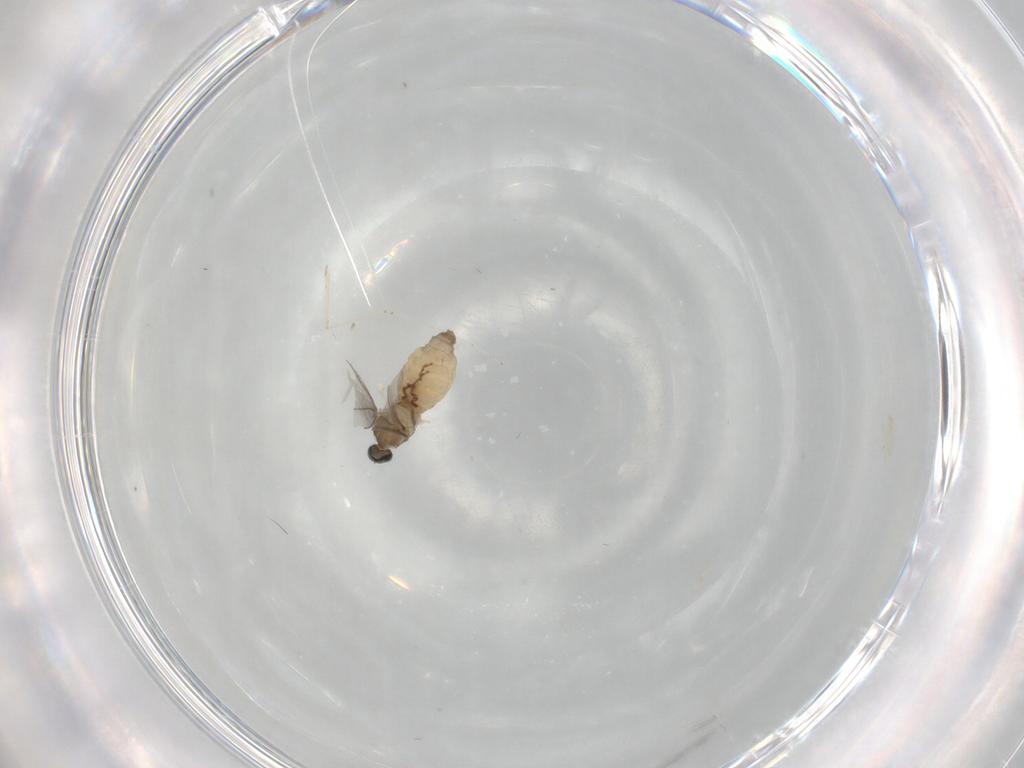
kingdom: Animalia
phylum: Arthropoda
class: Insecta
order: Diptera
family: Cecidomyiidae
